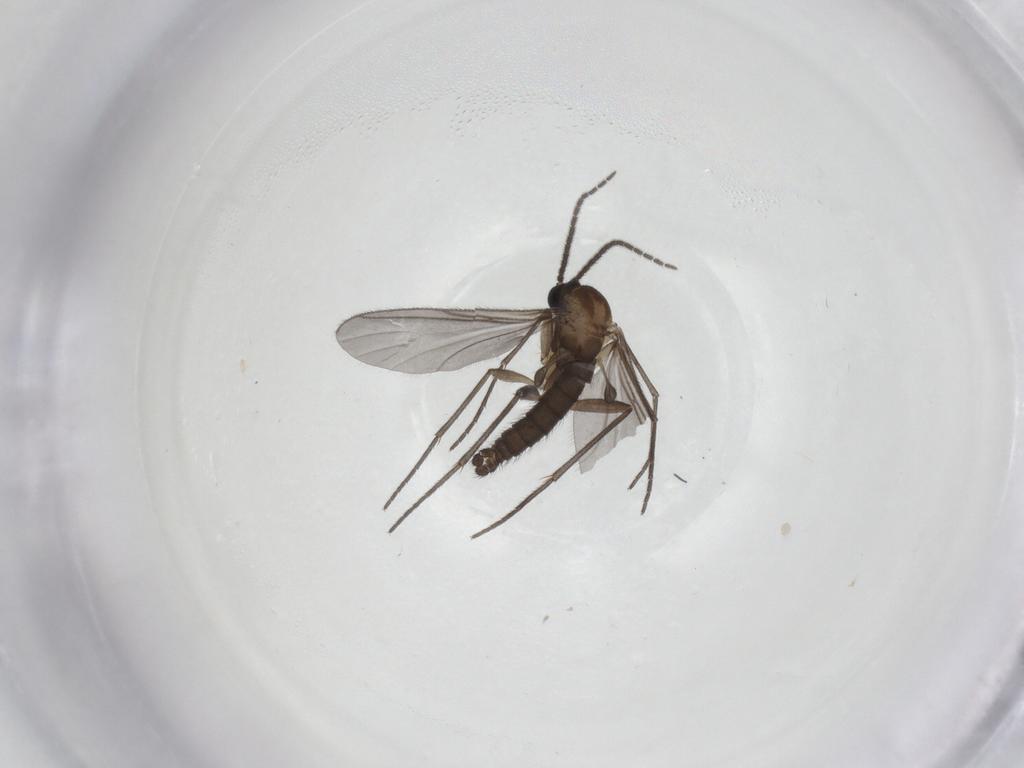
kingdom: Animalia
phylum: Arthropoda
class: Insecta
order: Diptera
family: Sciaridae
